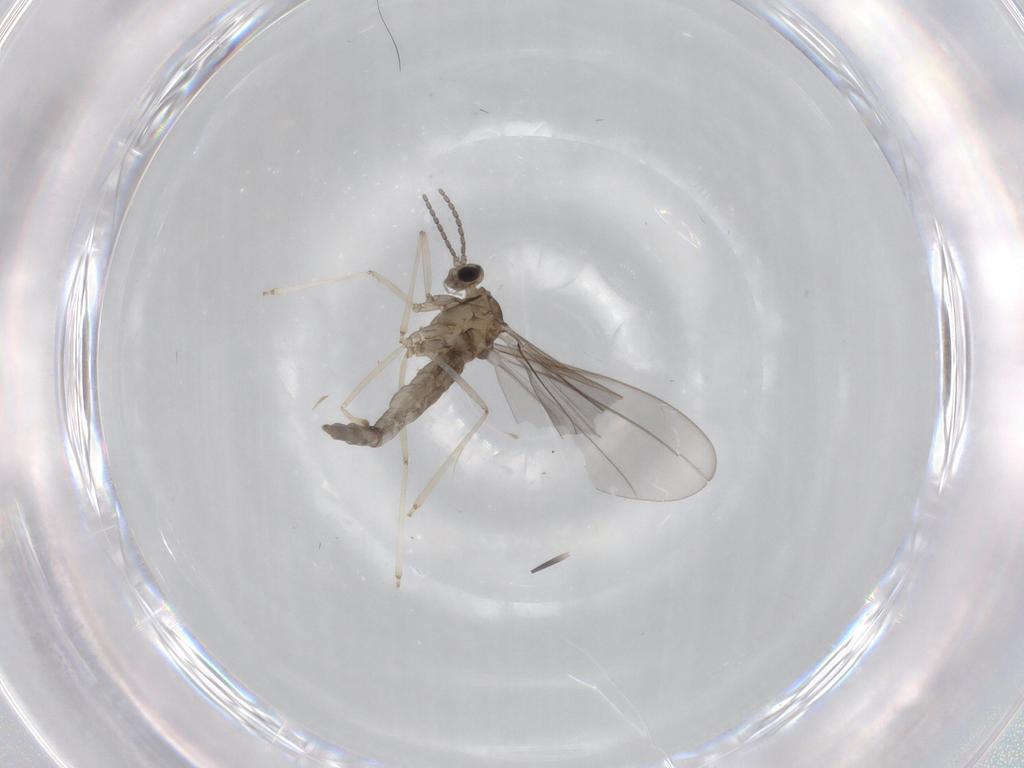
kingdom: Animalia
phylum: Arthropoda
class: Insecta
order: Diptera
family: Cecidomyiidae
